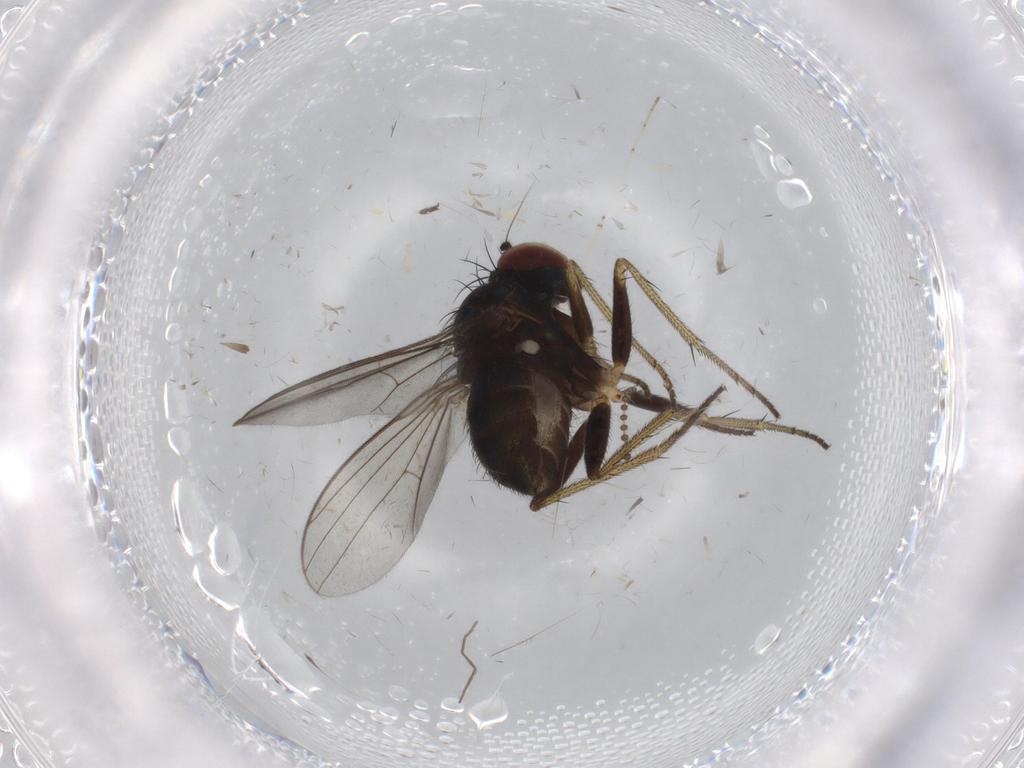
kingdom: Animalia
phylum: Arthropoda
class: Insecta
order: Diptera
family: Dolichopodidae
